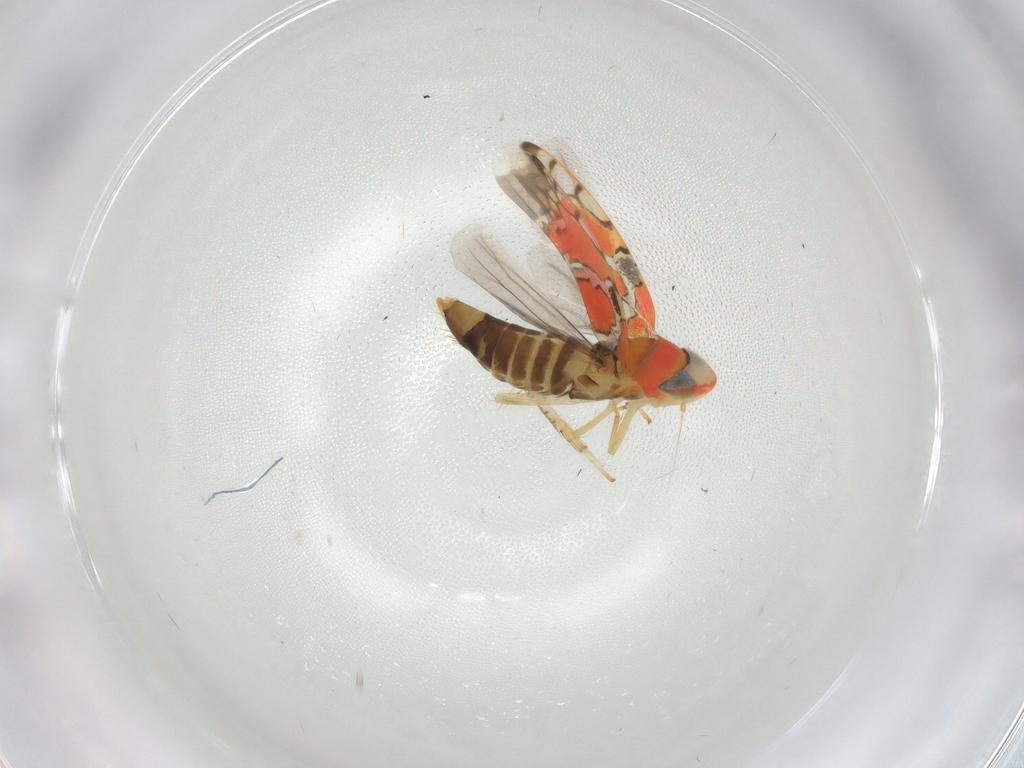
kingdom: Animalia
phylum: Arthropoda
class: Insecta
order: Hemiptera
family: Cicadellidae
